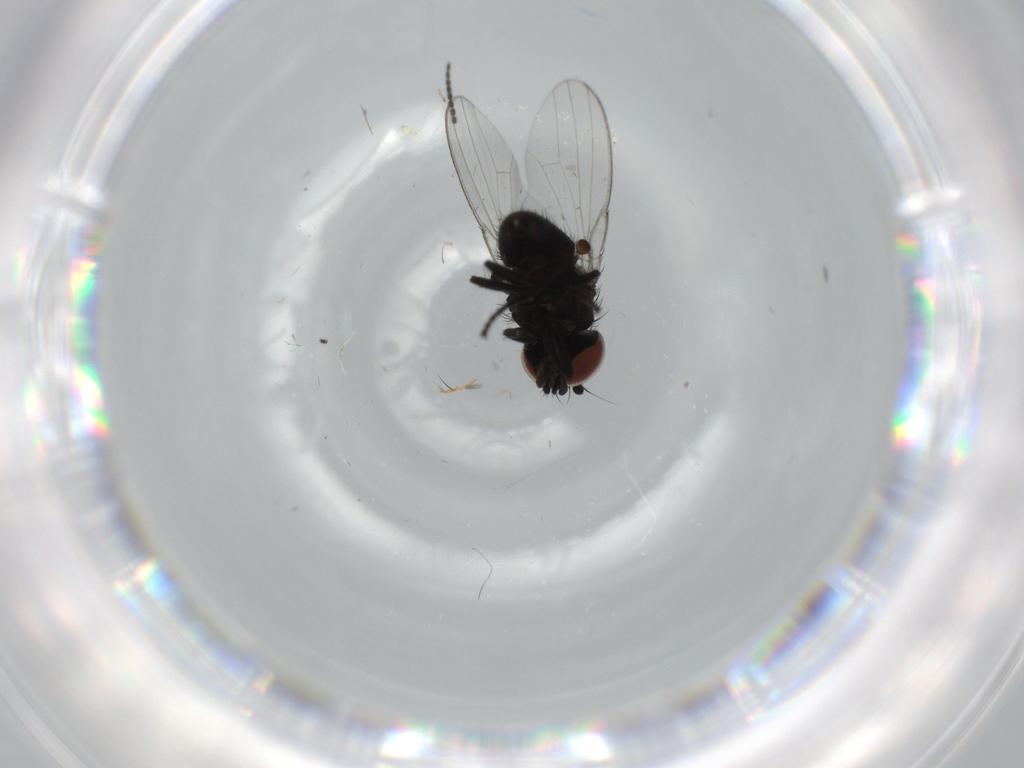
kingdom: Animalia
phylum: Arthropoda
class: Insecta
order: Diptera
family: Milichiidae
